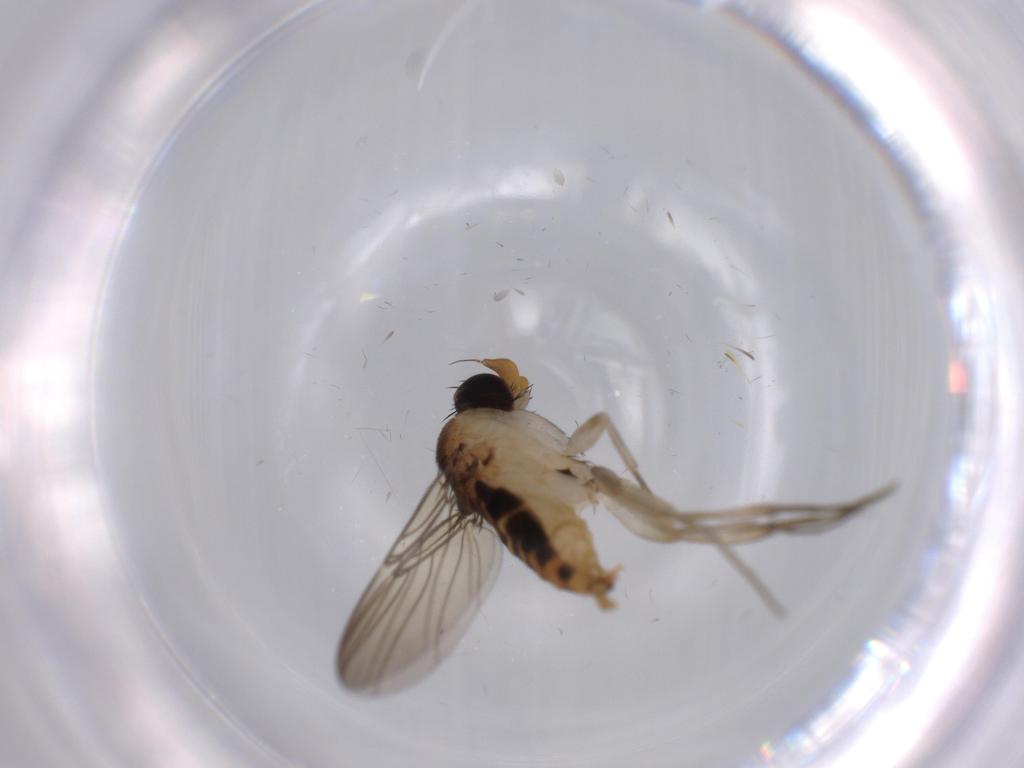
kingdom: Animalia
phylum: Arthropoda
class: Insecta
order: Diptera
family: Phoridae
